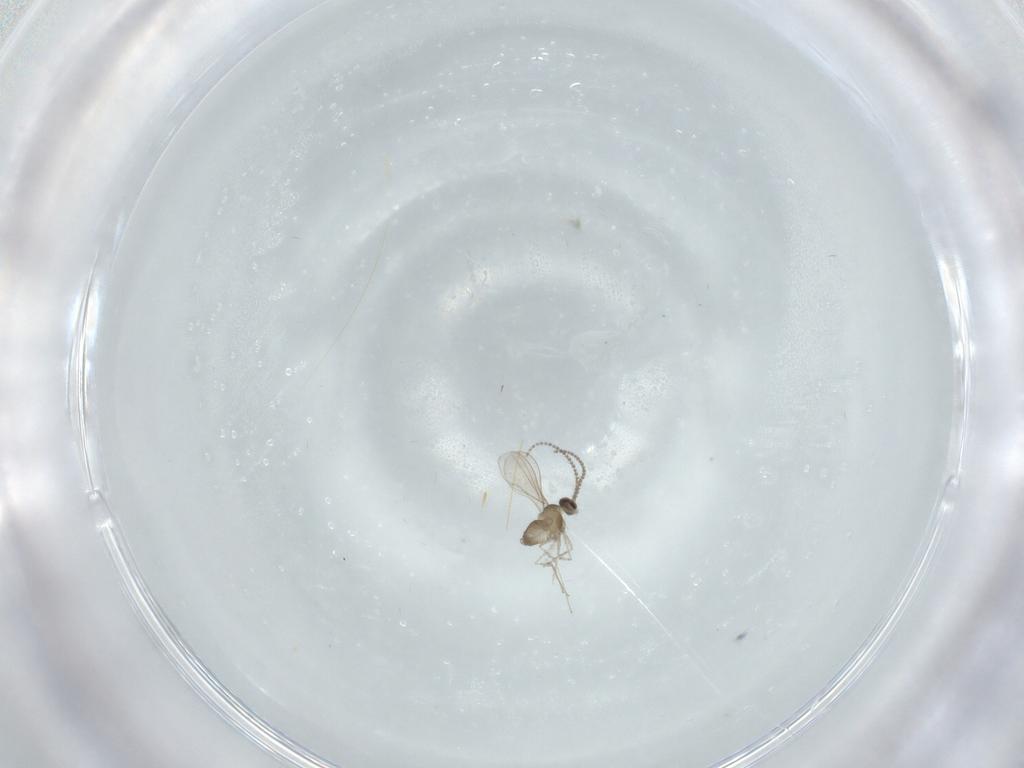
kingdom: Animalia
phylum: Arthropoda
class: Insecta
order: Diptera
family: Cecidomyiidae
